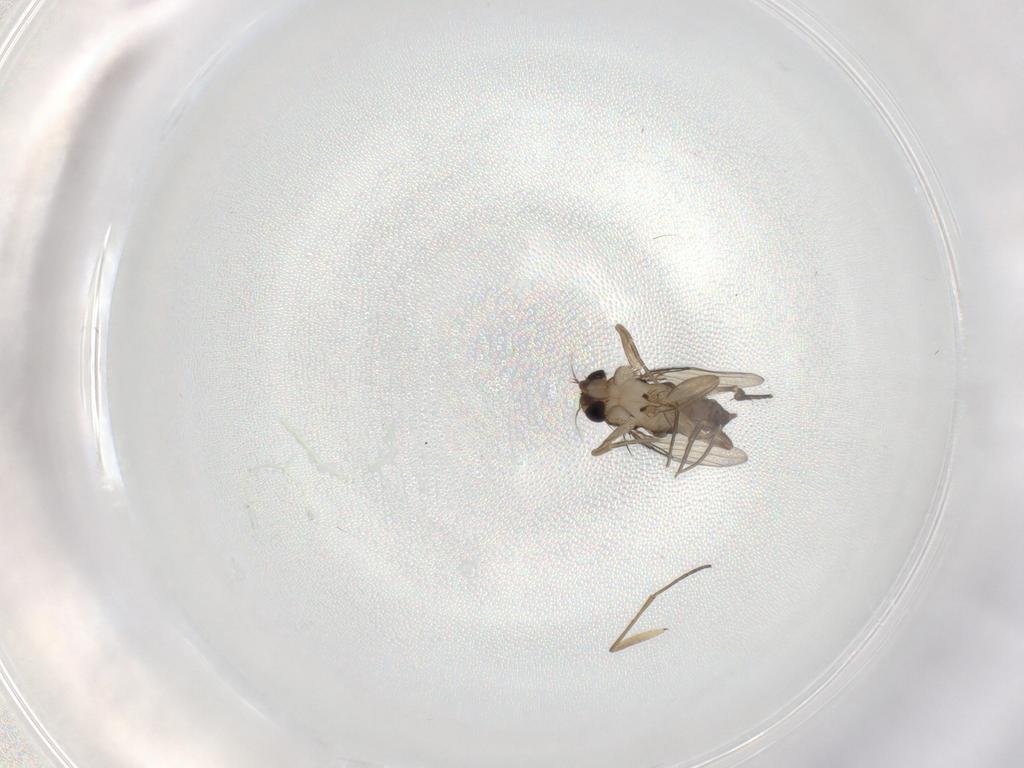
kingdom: Animalia
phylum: Arthropoda
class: Insecta
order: Diptera
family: Phoridae
